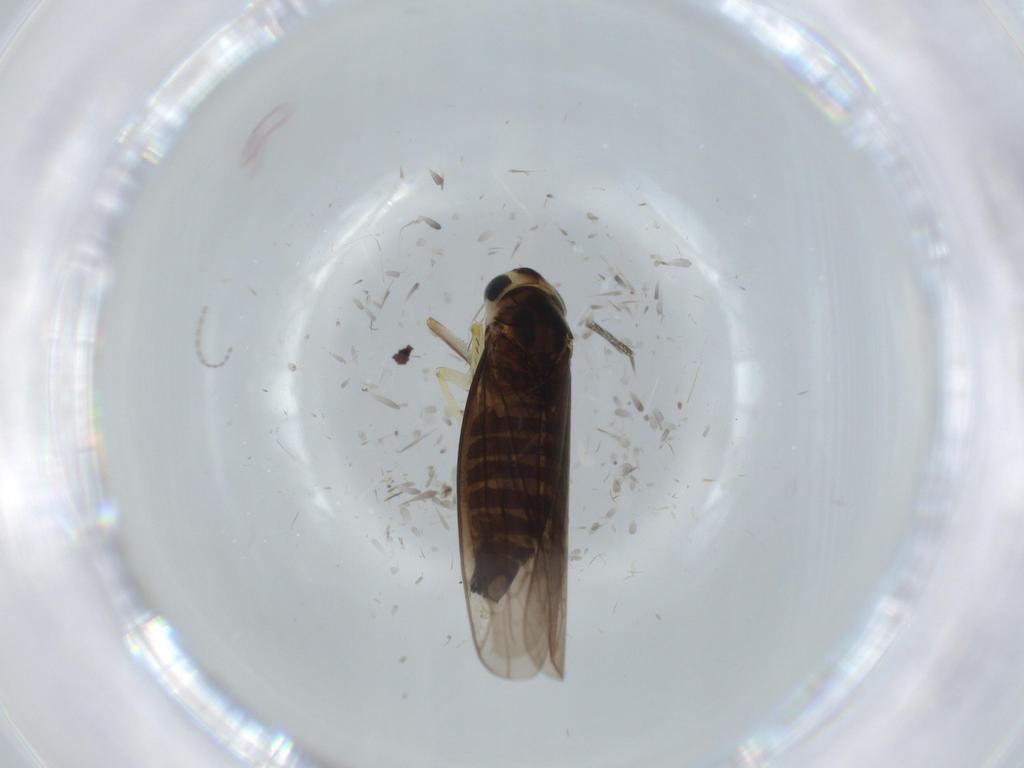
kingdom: Animalia
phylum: Arthropoda
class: Insecta
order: Hemiptera
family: Cicadellidae
